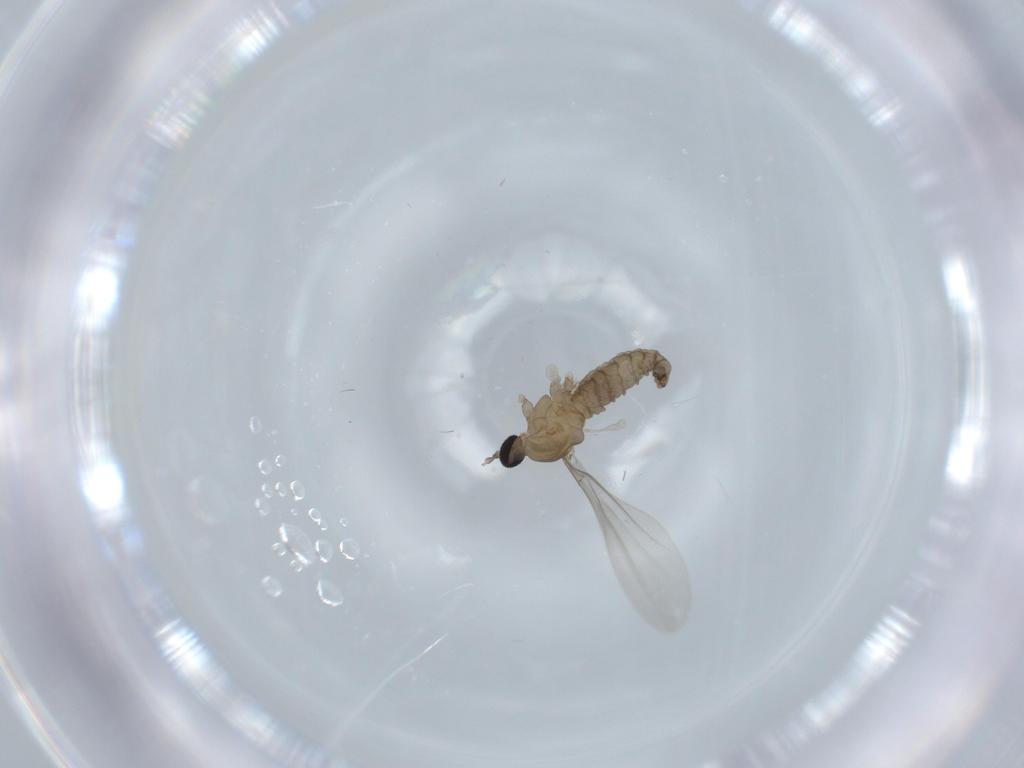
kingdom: Animalia
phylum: Arthropoda
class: Insecta
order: Diptera
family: Cecidomyiidae
